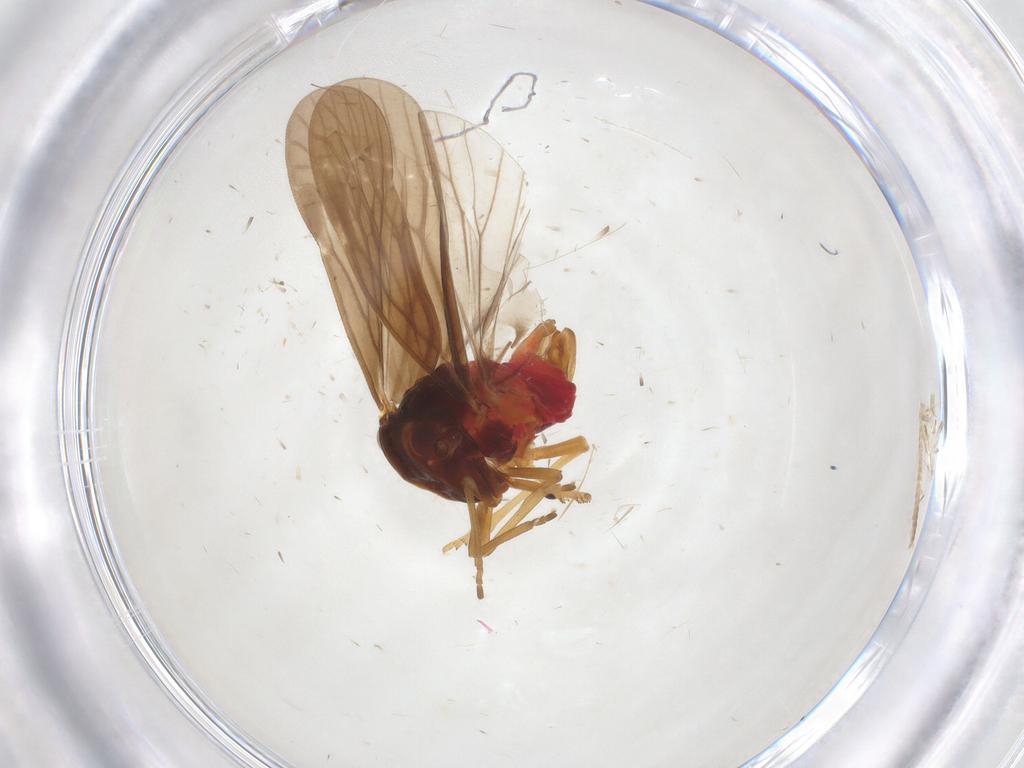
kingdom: Animalia
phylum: Arthropoda
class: Insecta
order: Hemiptera
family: Derbidae
